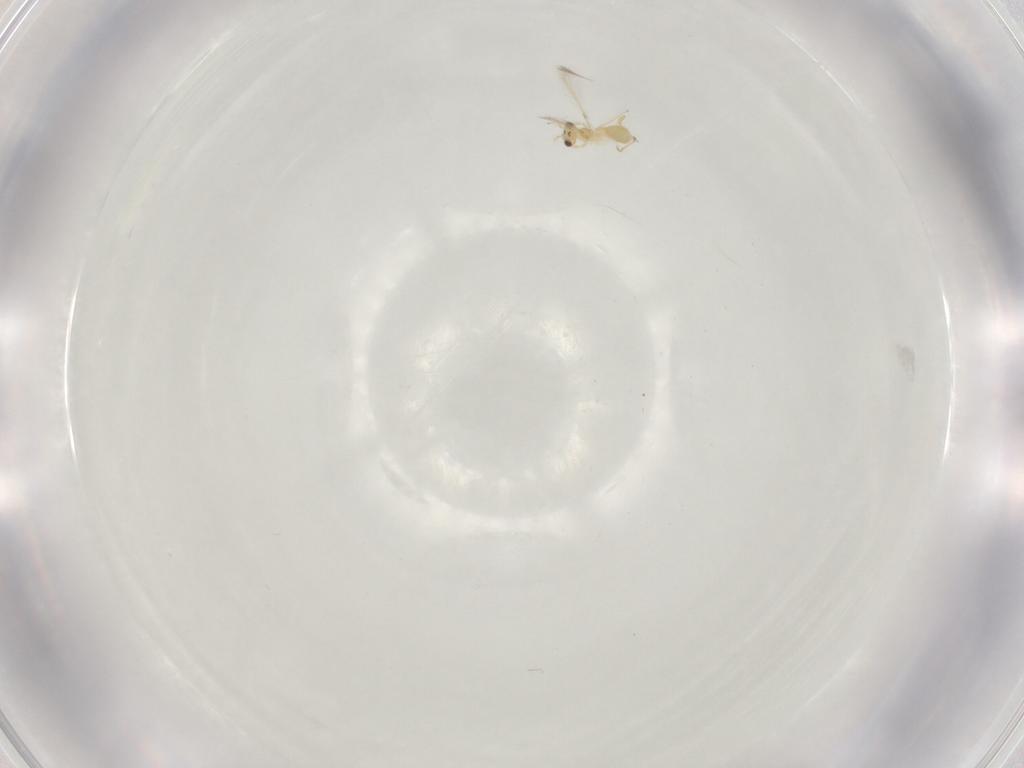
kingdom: Animalia
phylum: Arthropoda
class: Insecta
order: Hymenoptera
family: Mymaridae
